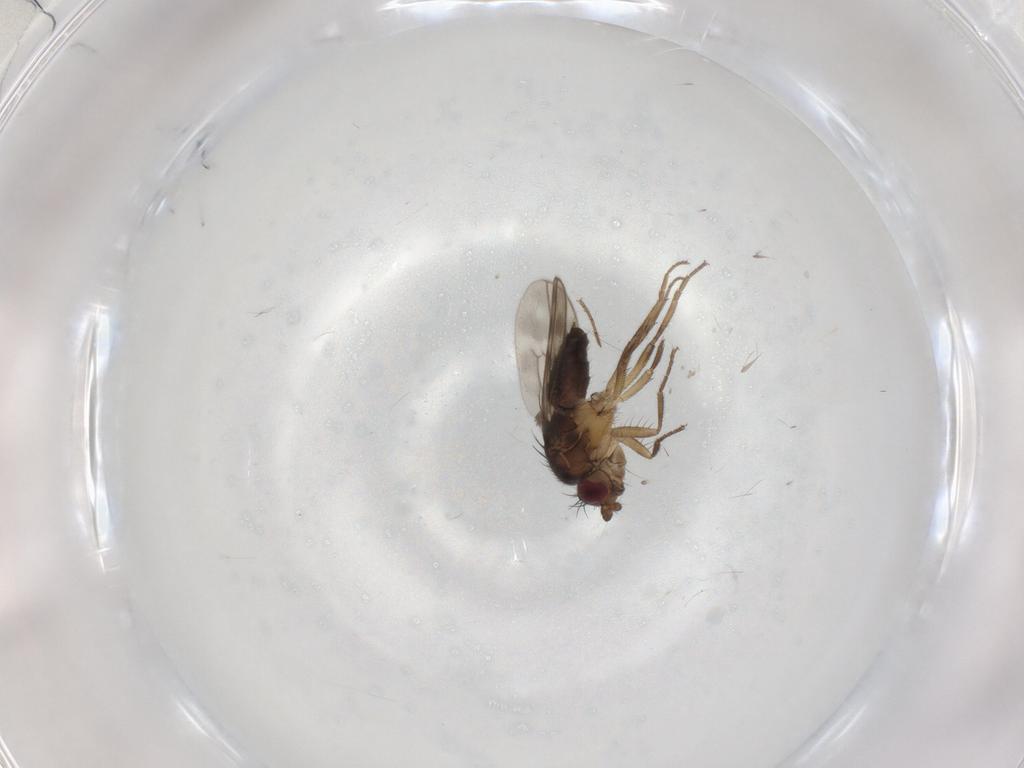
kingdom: Animalia
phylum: Arthropoda
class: Insecta
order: Diptera
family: Sphaeroceridae
